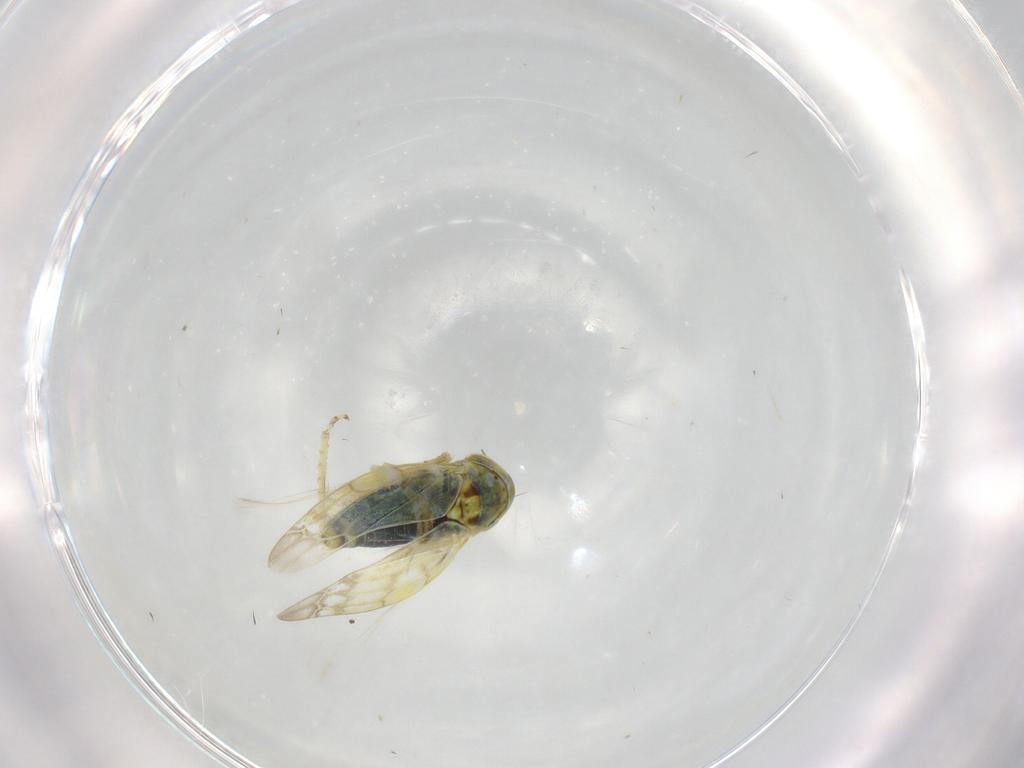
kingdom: Animalia
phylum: Arthropoda
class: Insecta
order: Hemiptera
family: Cicadellidae
